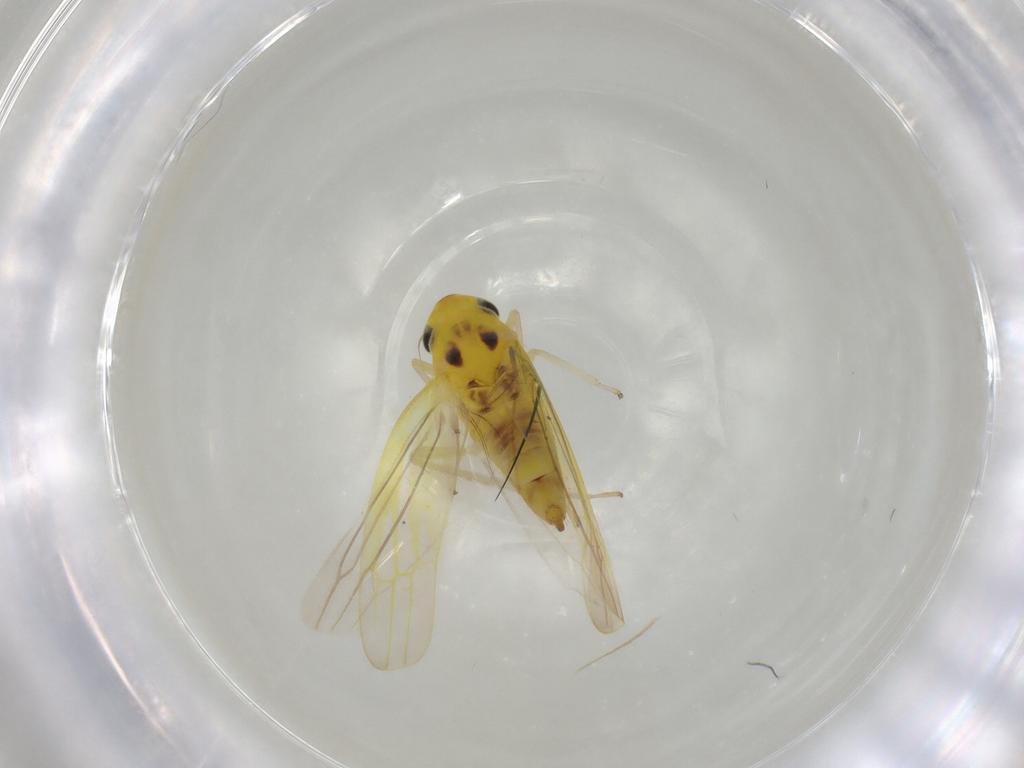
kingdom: Animalia
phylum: Arthropoda
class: Insecta
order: Hemiptera
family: Cicadellidae
